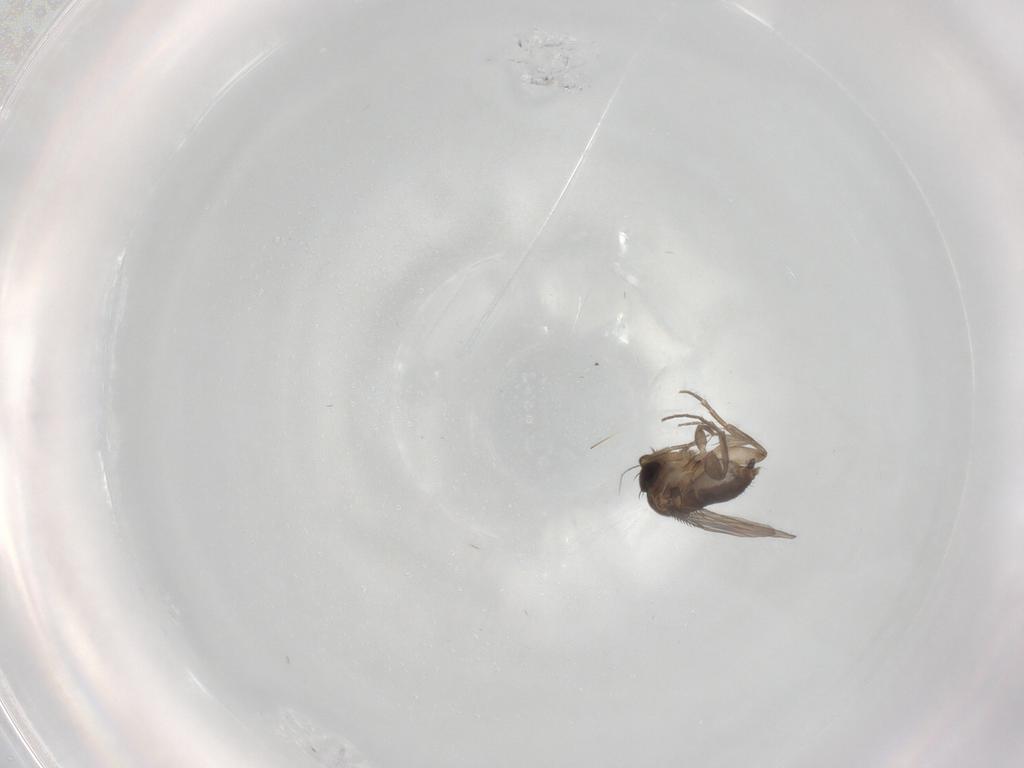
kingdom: Animalia
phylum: Arthropoda
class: Insecta
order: Diptera
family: Phoridae
